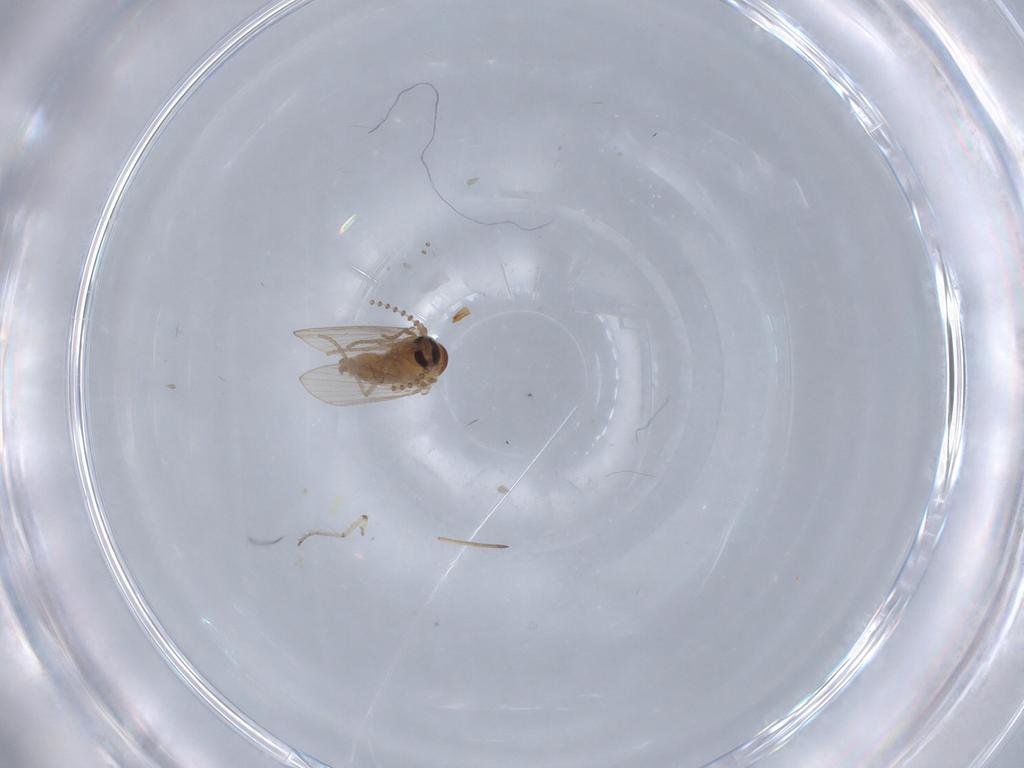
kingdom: Animalia
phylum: Arthropoda
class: Insecta
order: Diptera
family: Psychodidae
